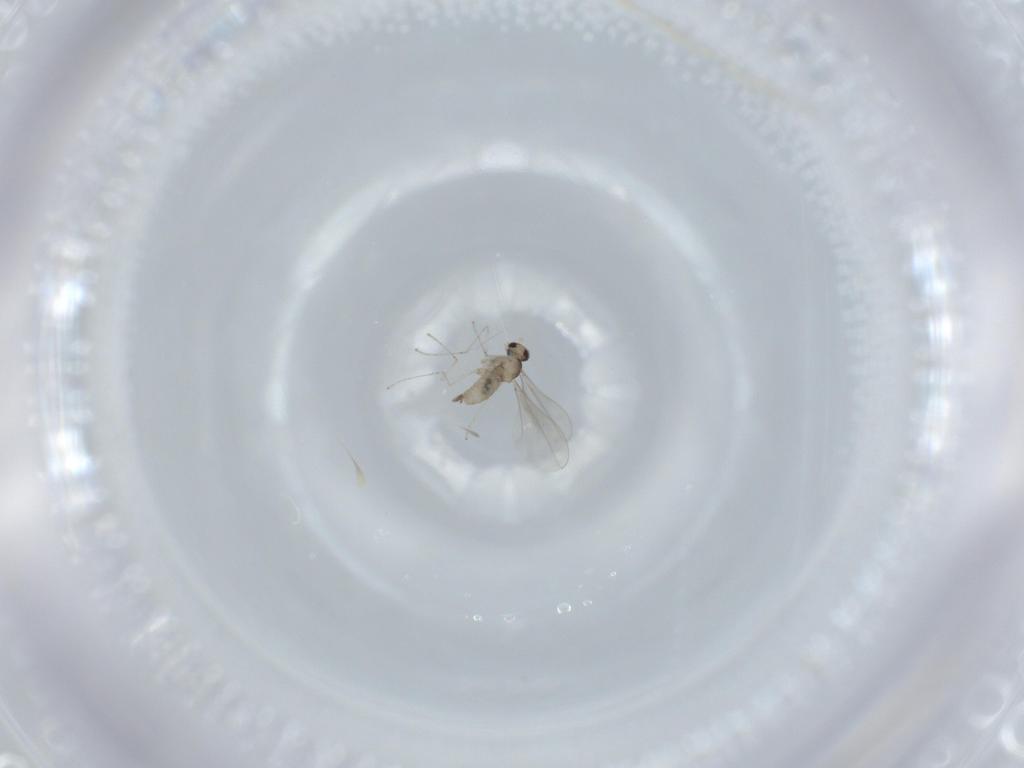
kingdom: Animalia
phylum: Arthropoda
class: Insecta
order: Diptera
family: Cecidomyiidae
